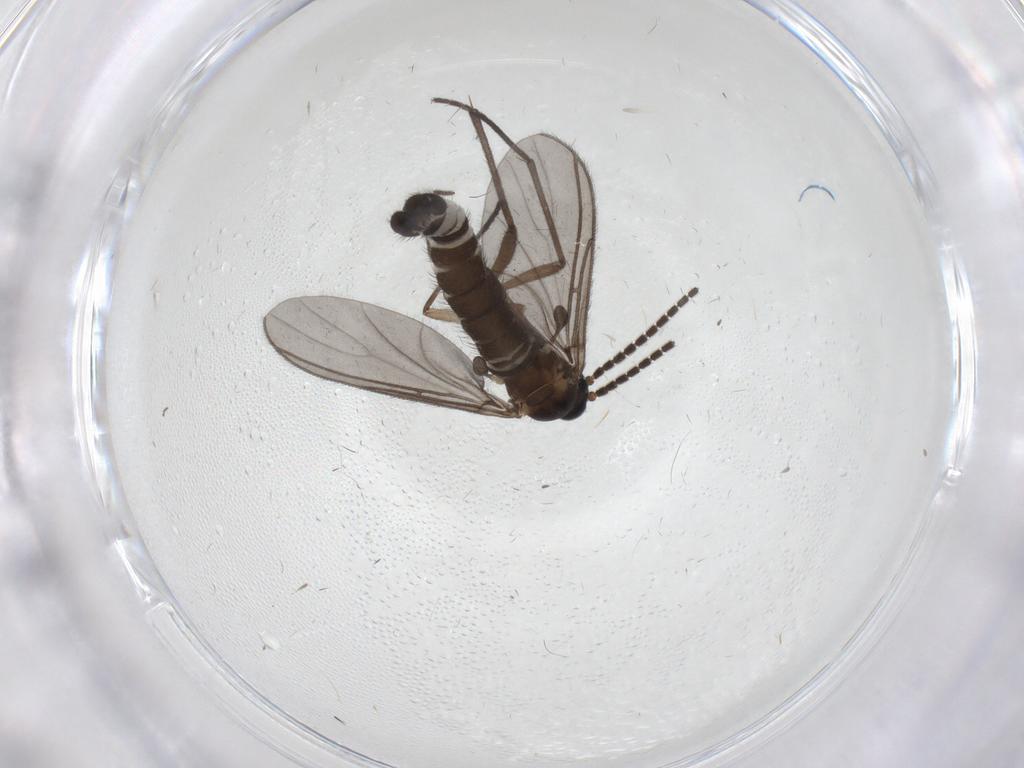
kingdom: Animalia
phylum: Arthropoda
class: Insecta
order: Diptera
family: Sciaridae
